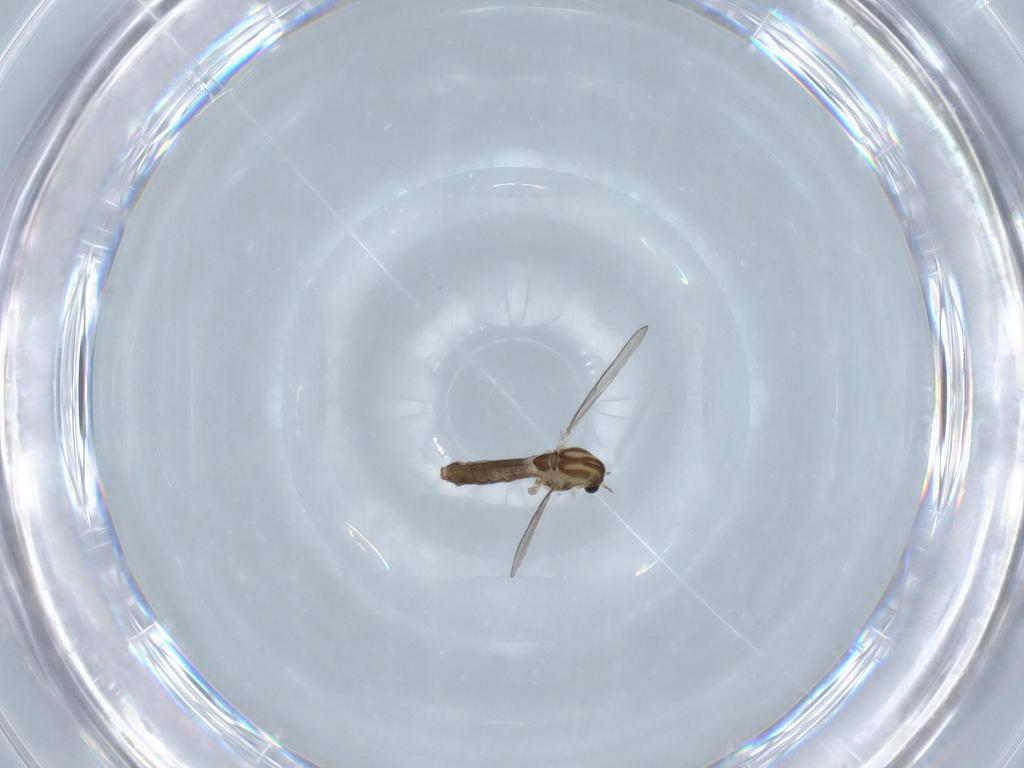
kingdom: Animalia
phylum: Arthropoda
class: Insecta
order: Diptera
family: Chironomidae
